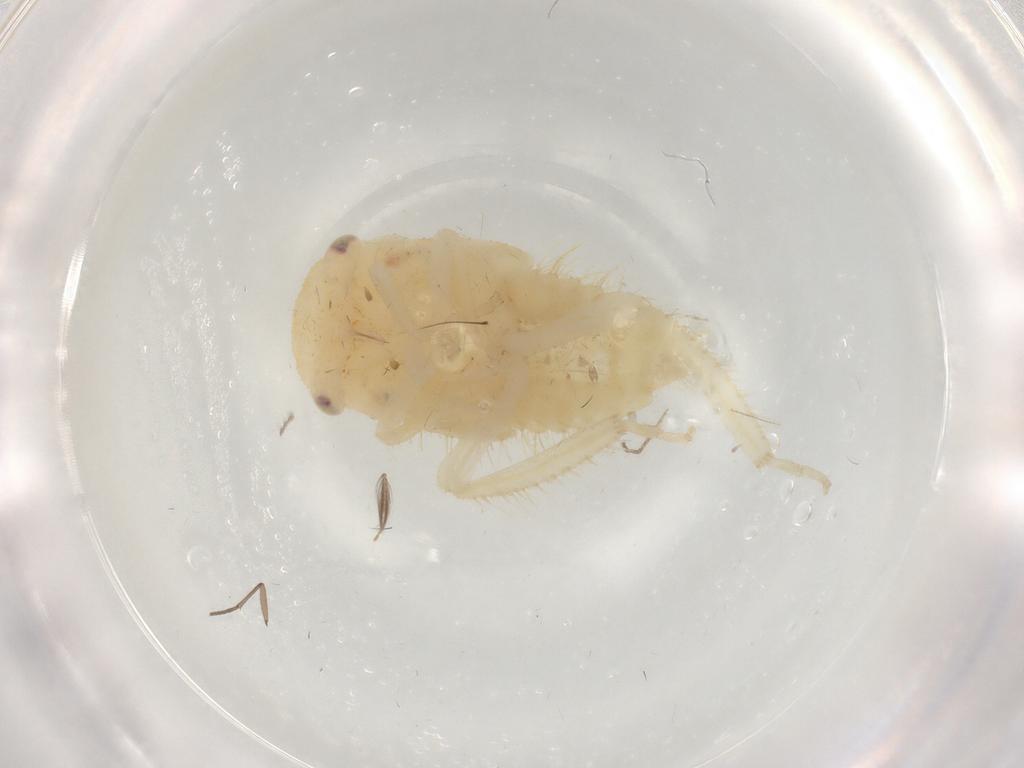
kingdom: Animalia
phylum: Arthropoda
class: Insecta
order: Hemiptera
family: Cicadellidae
